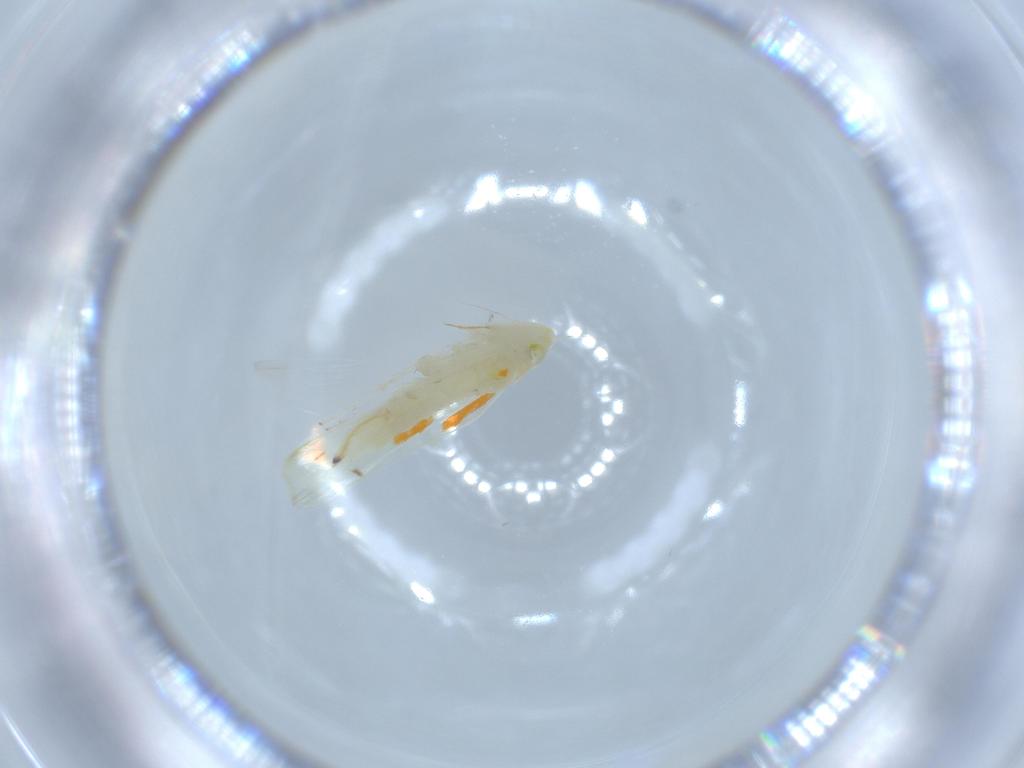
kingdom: Animalia
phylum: Arthropoda
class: Insecta
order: Hemiptera
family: Cicadellidae
